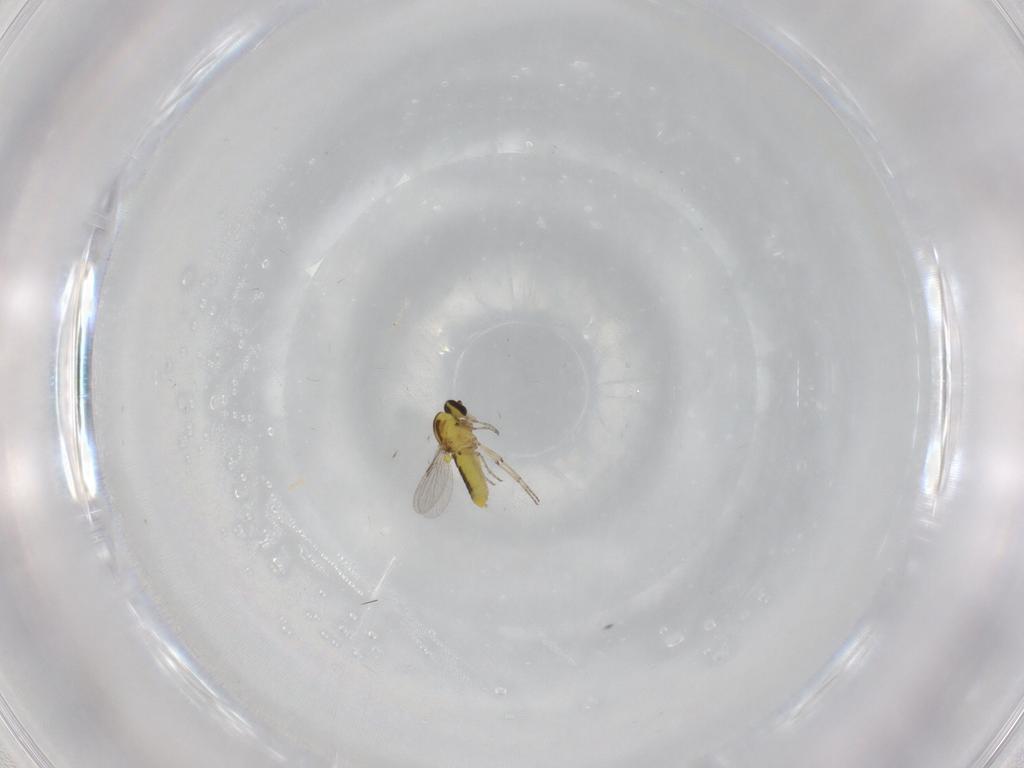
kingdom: Animalia
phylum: Arthropoda
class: Insecta
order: Diptera
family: Ceratopogonidae
